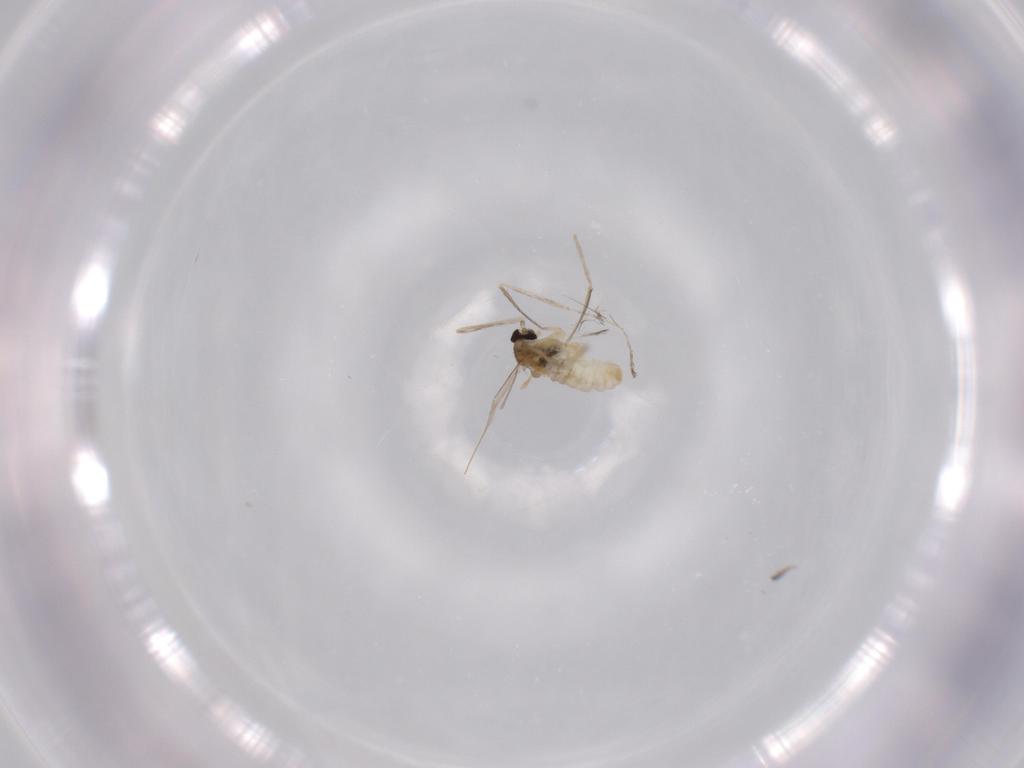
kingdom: Animalia
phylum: Arthropoda
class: Insecta
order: Diptera
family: Cecidomyiidae
